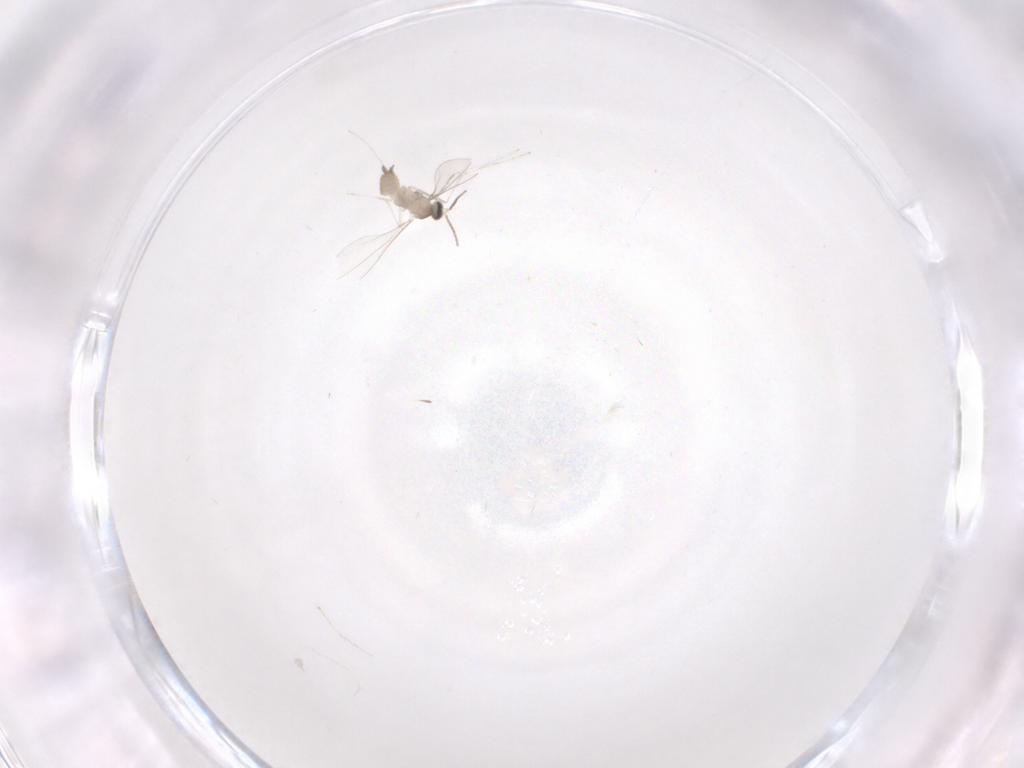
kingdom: Animalia
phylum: Arthropoda
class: Insecta
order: Diptera
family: Cecidomyiidae
